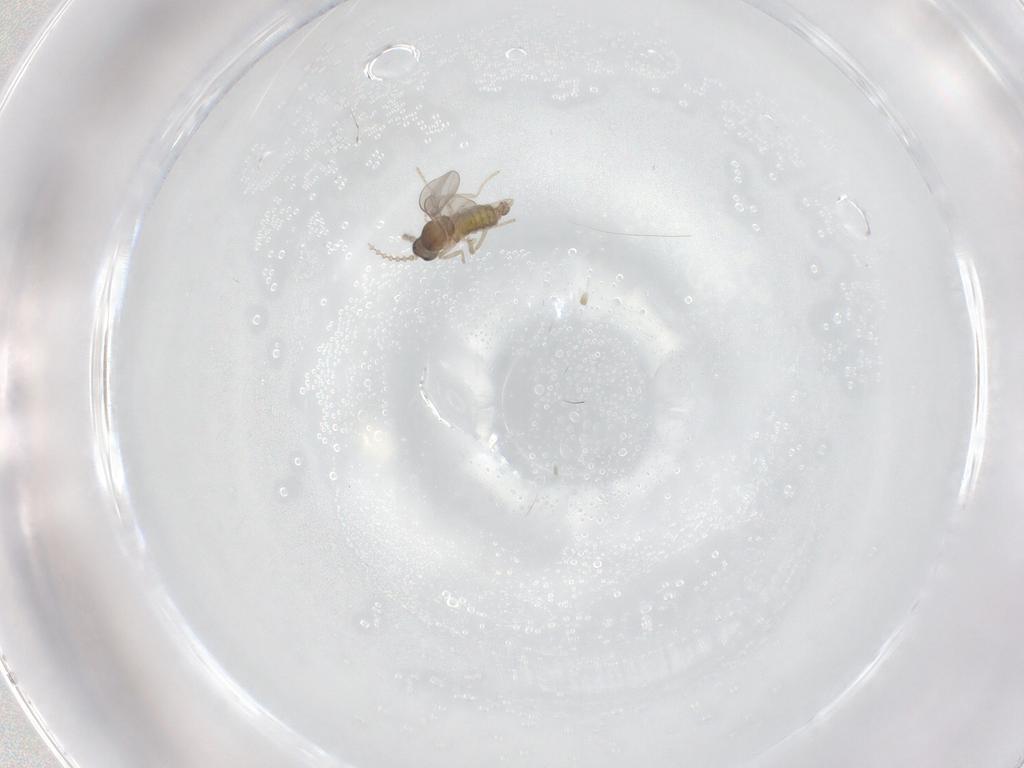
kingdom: Animalia
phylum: Arthropoda
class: Insecta
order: Diptera
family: Cecidomyiidae
